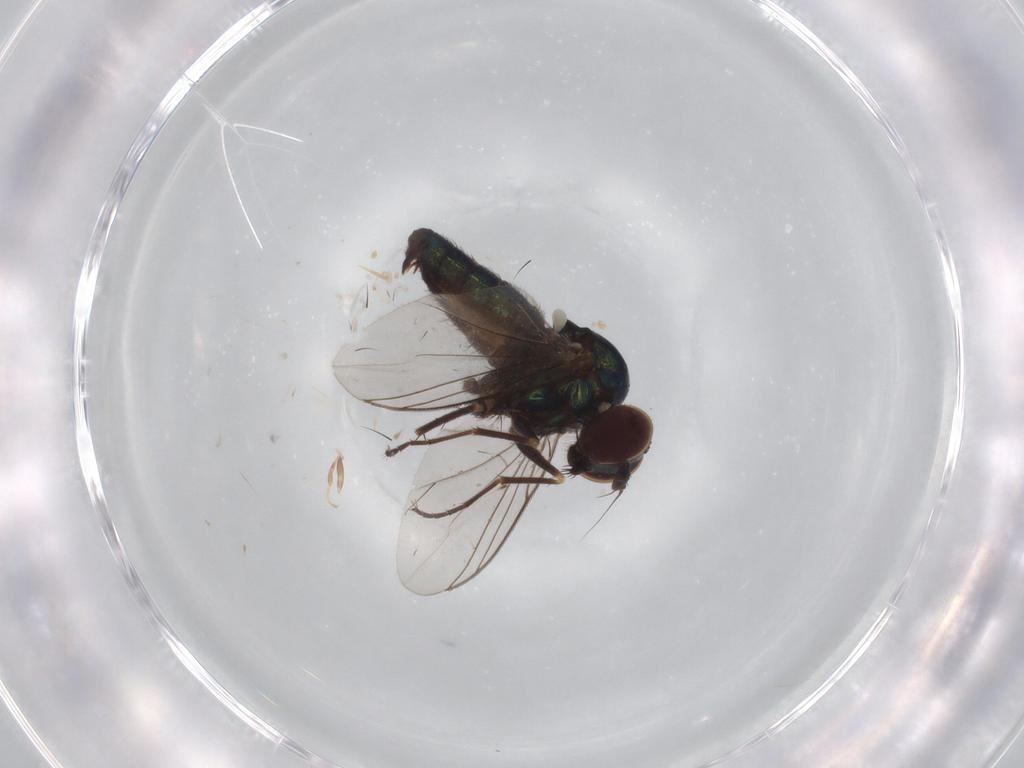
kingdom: Animalia
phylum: Arthropoda
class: Insecta
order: Diptera
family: Dolichopodidae
